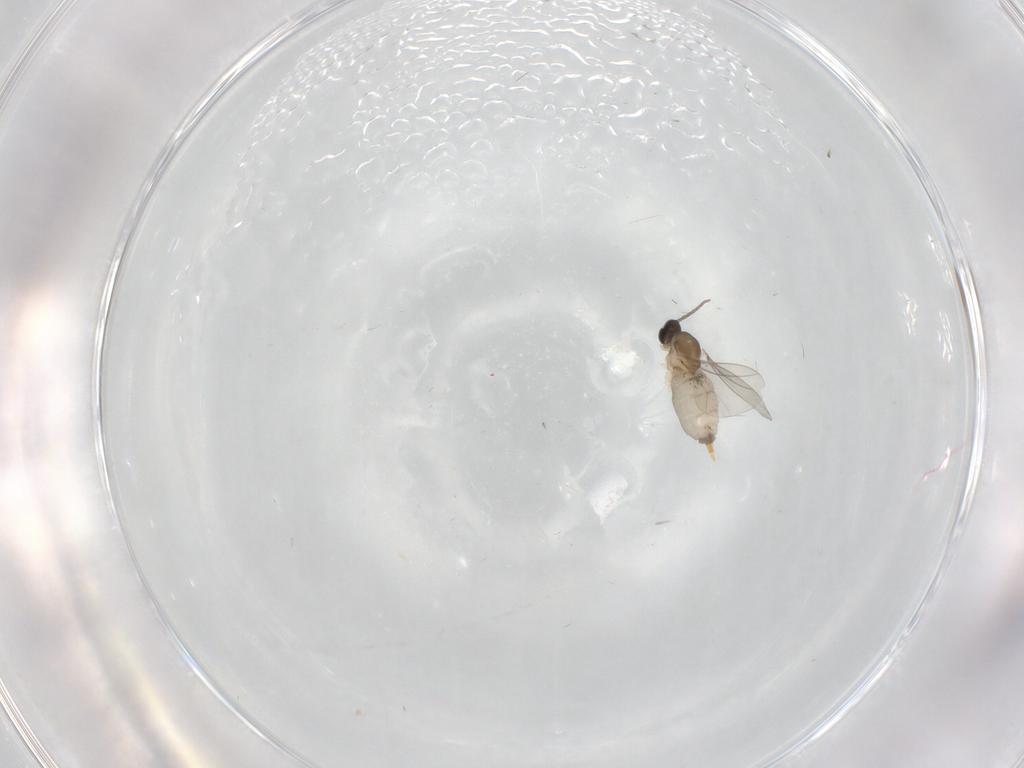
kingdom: Animalia
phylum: Arthropoda
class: Insecta
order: Diptera
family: Cecidomyiidae
